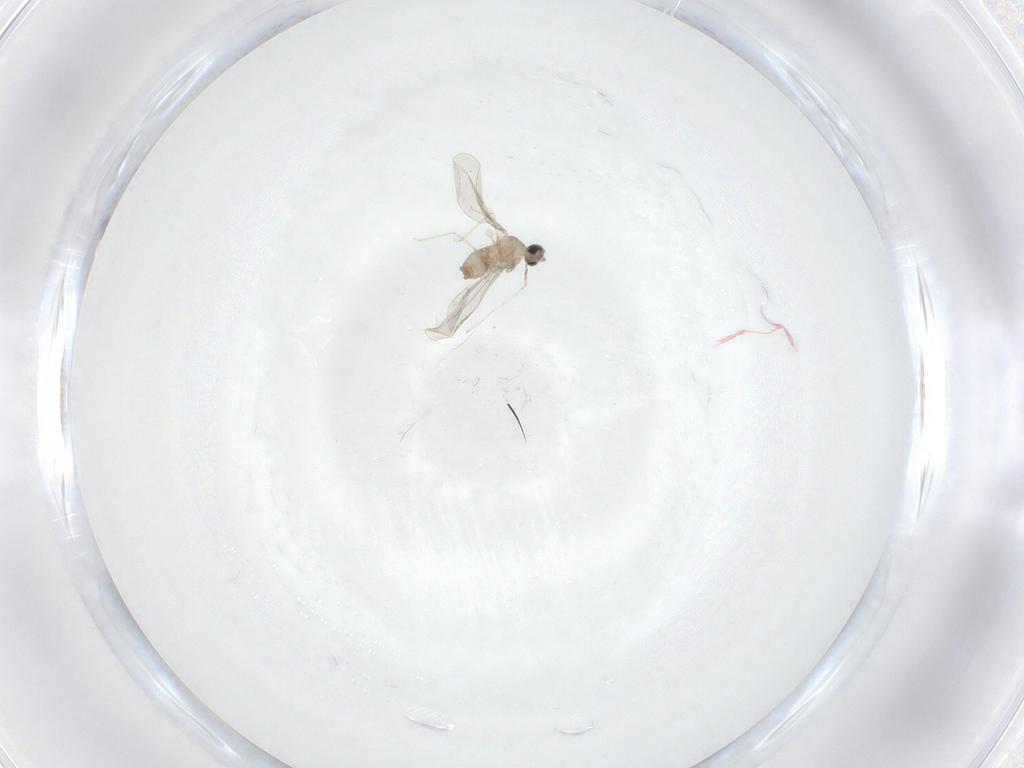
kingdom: Animalia
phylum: Arthropoda
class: Insecta
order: Diptera
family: Cecidomyiidae
